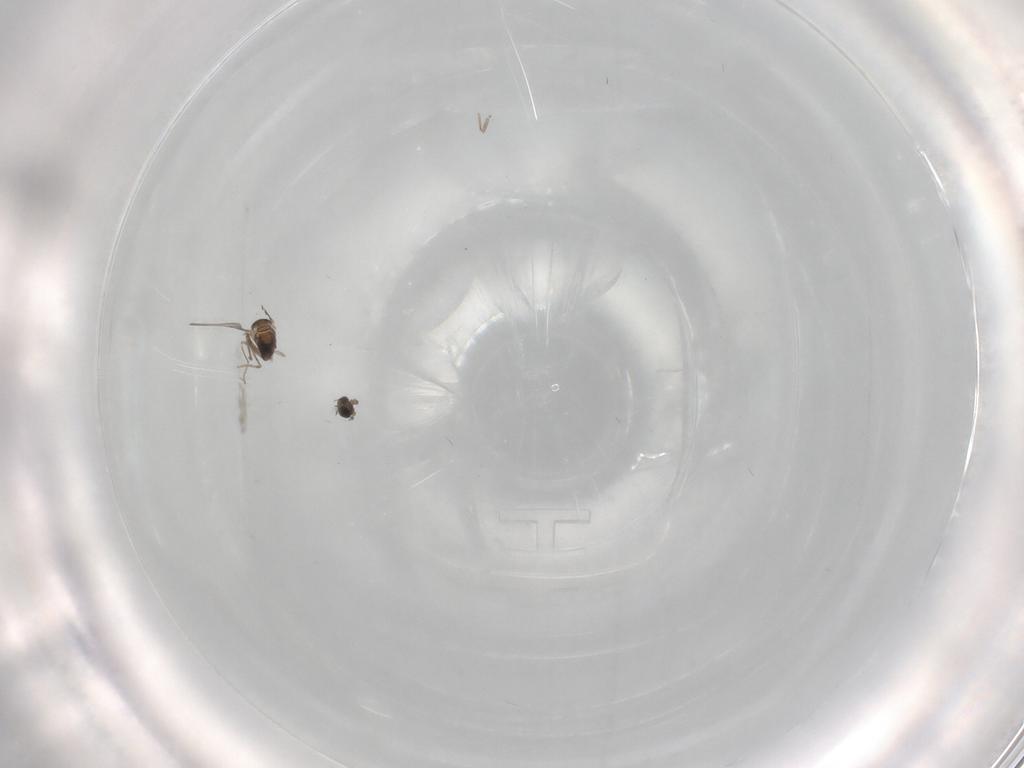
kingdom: Animalia
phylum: Arthropoda
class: Insecta
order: Diptera
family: Cecidomyiidae
